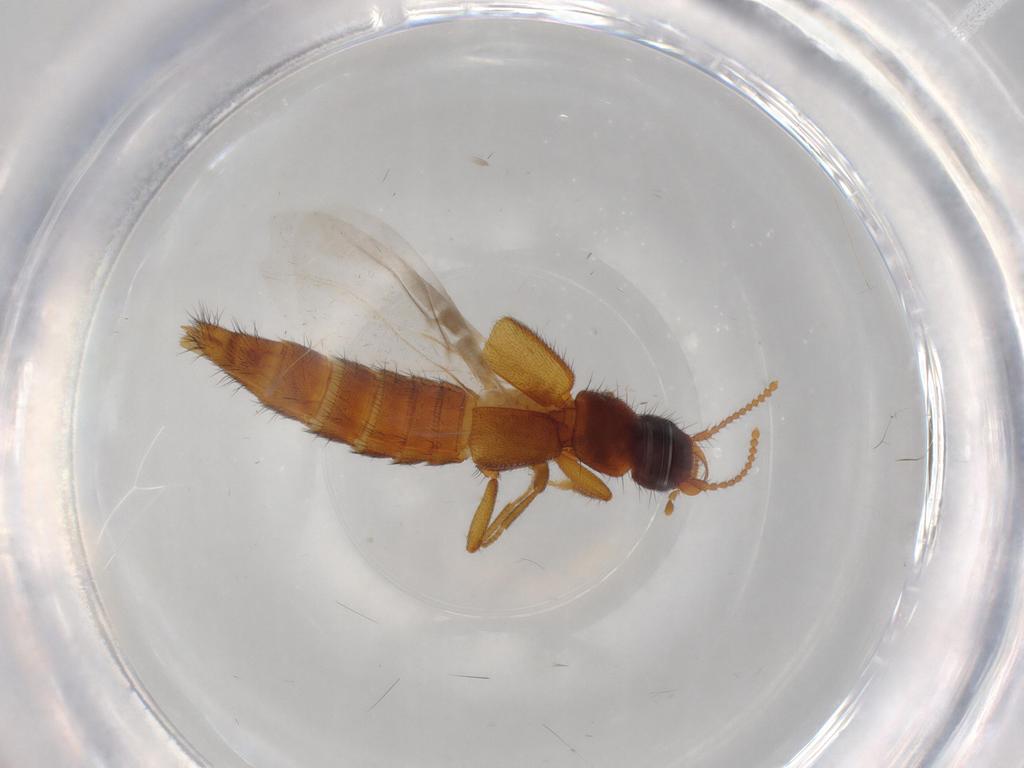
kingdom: Animalia
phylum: Arthropoda
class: Insecta
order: Coleoptera
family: Staphylinidae
